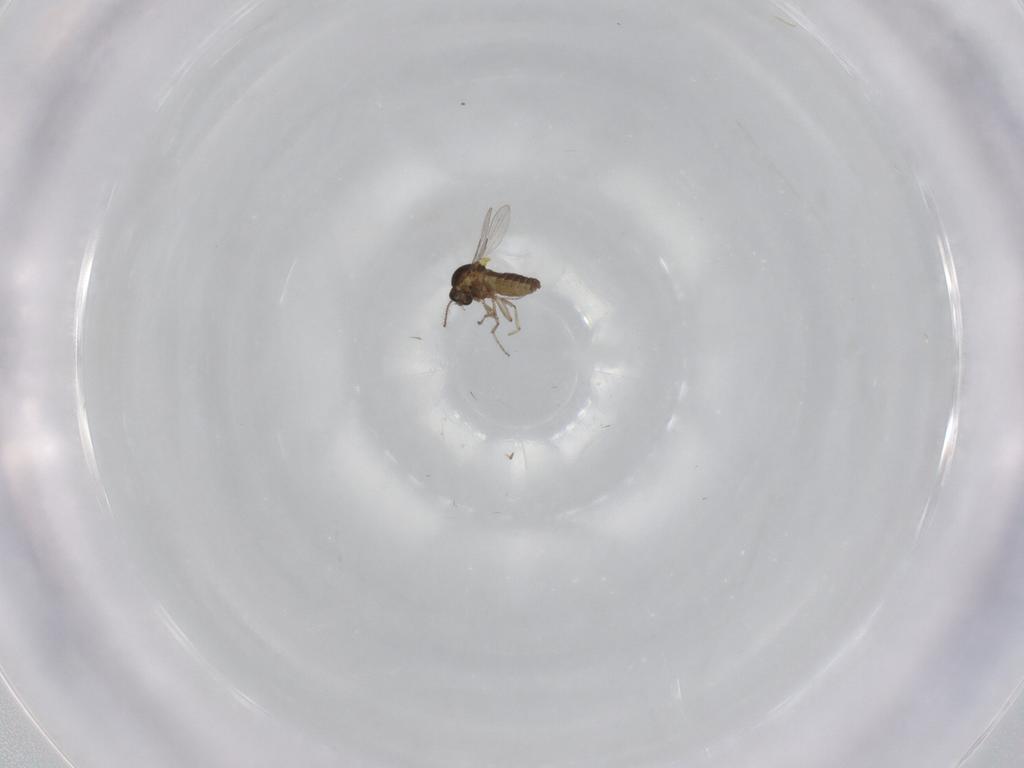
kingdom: Animalia
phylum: Arthropoda
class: Insecta
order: Diptera
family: Ceratopogonidae
